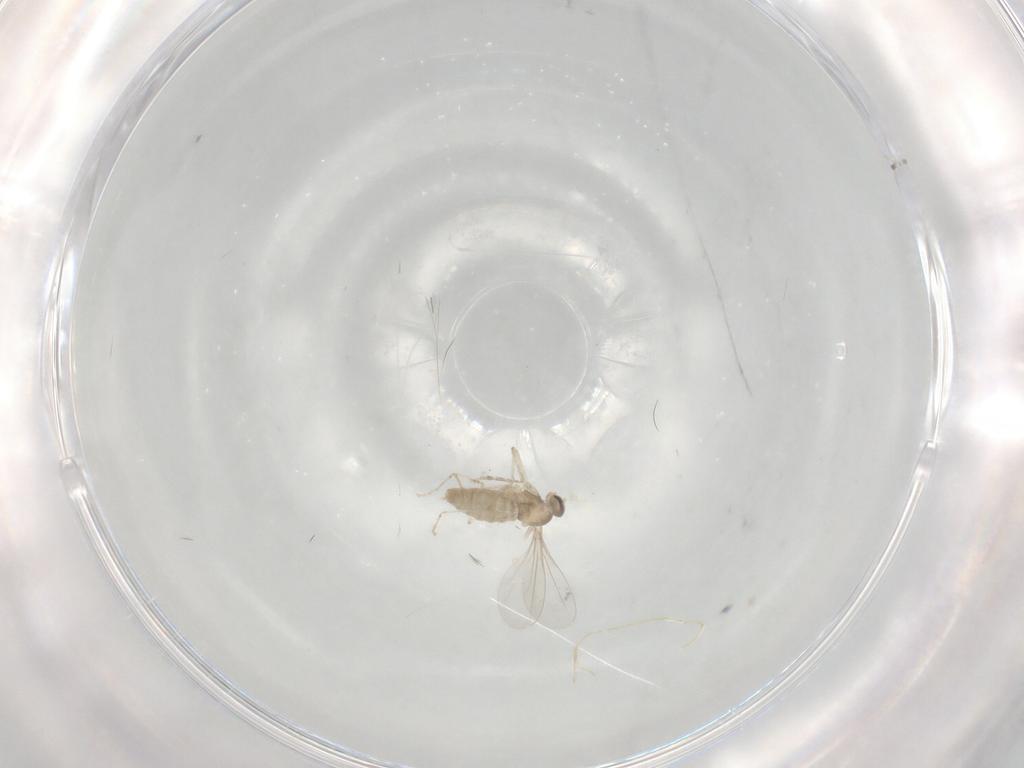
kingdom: Animalia
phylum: Arthropoda
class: Insecta
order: Diptera
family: Cecidomyiidae
